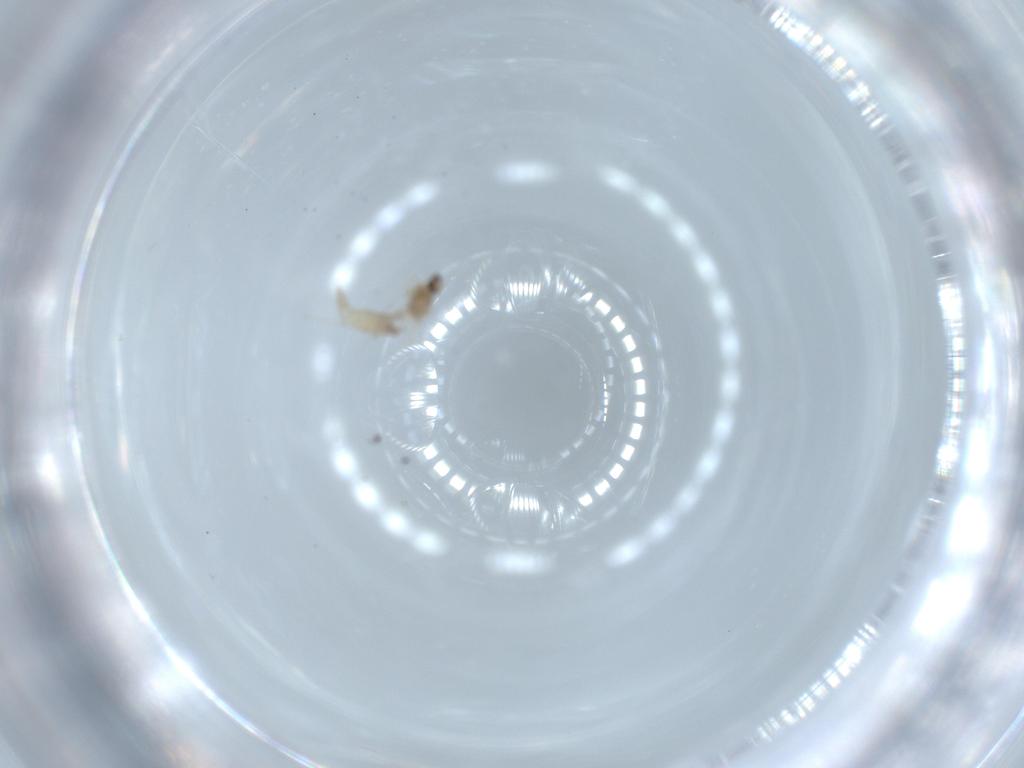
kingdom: Animalia
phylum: Arthropoda
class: Insecta
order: Diptera
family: Cecidomyiidae
